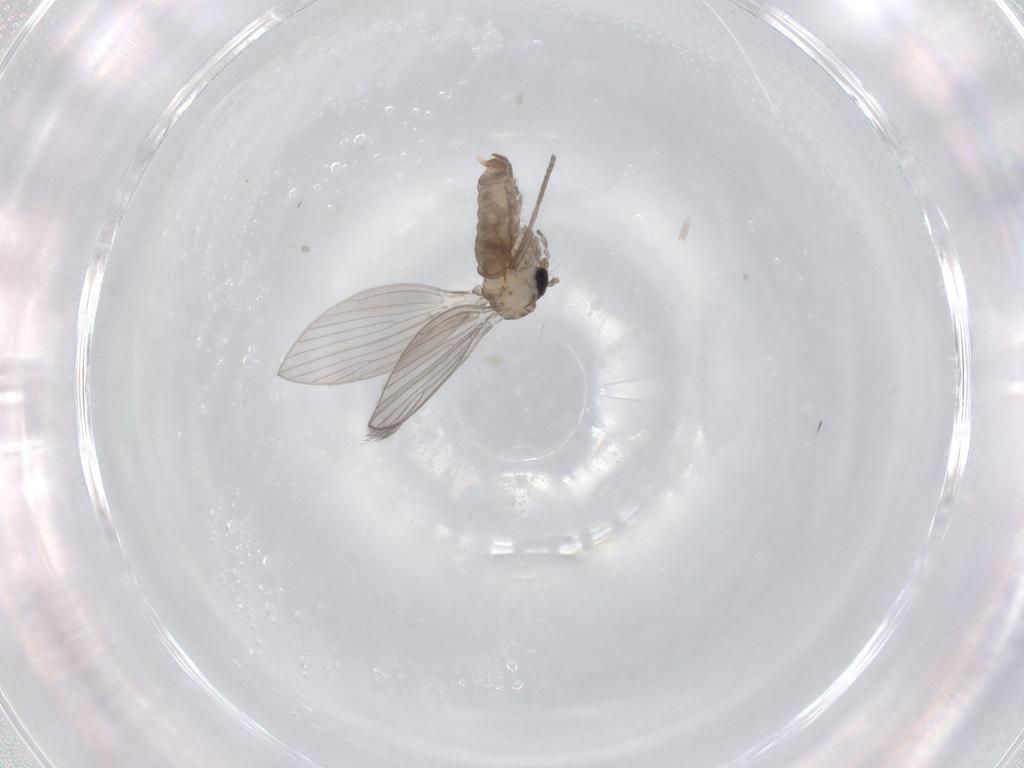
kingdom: Animalia
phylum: Arthropoda
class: Insecta
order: Diptera
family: Psychodidae
